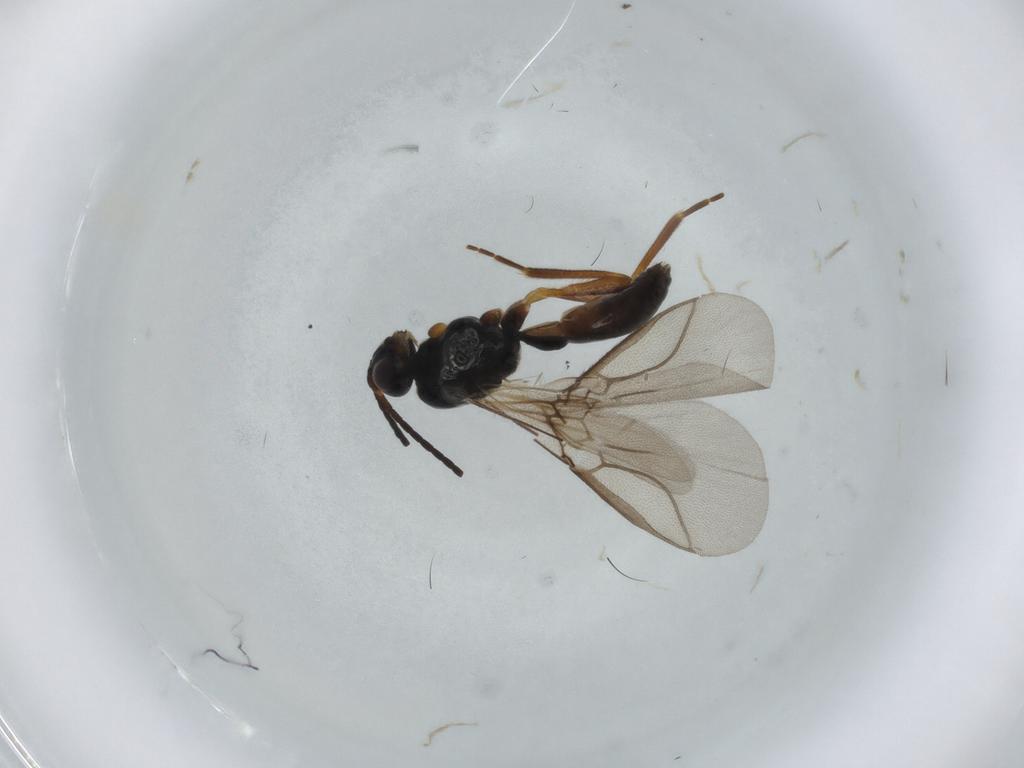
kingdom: Animalia
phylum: Arthropoda
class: Insecta
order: Hymenoptera
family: Braconidae
